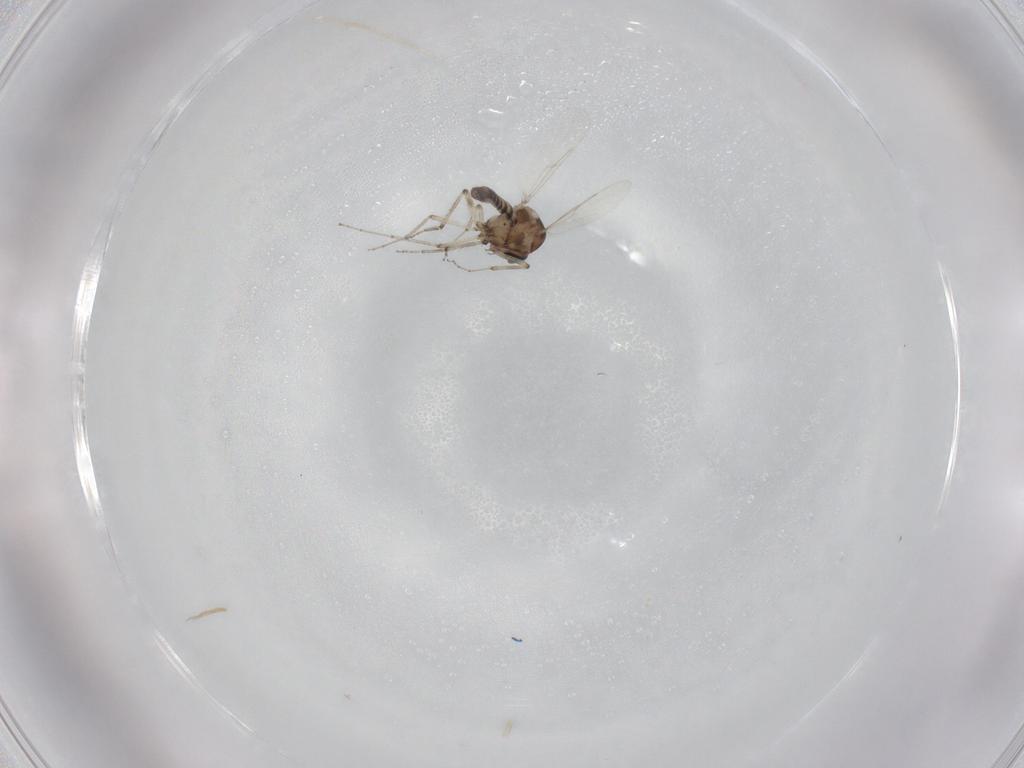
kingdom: Animalia
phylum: Arthropoda
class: Insecta
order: Diptera
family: Ceratopogonidae
